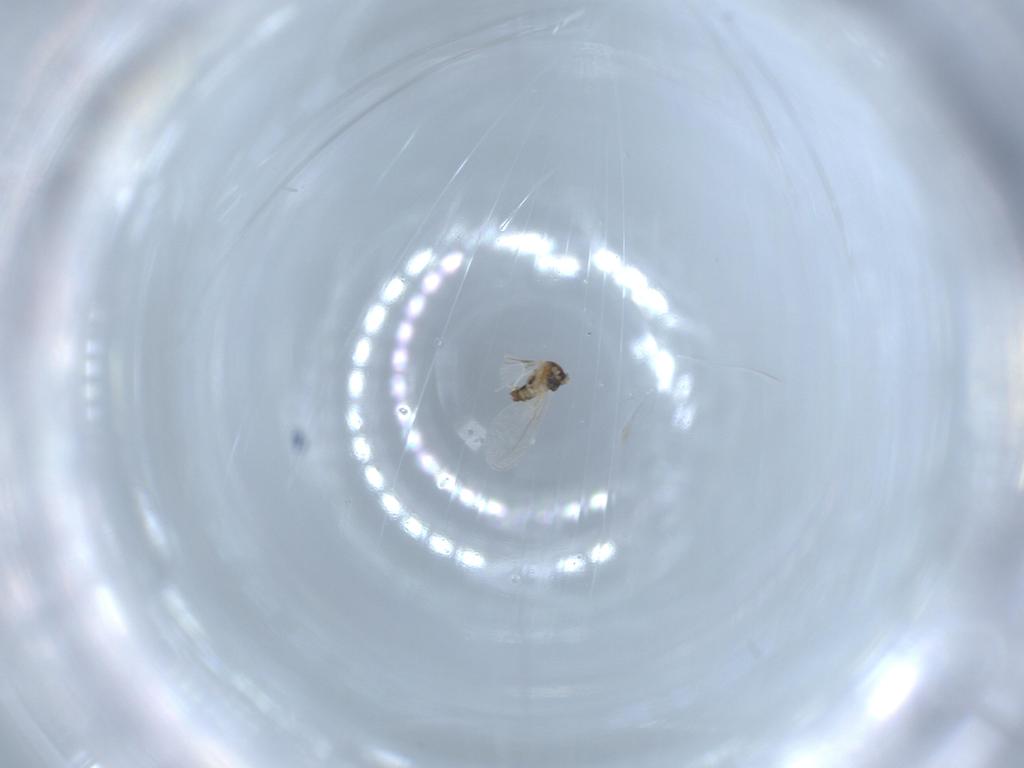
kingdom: Animalia
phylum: Arthropoda
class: Insecta
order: Diptera
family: Cecidomyiidae
